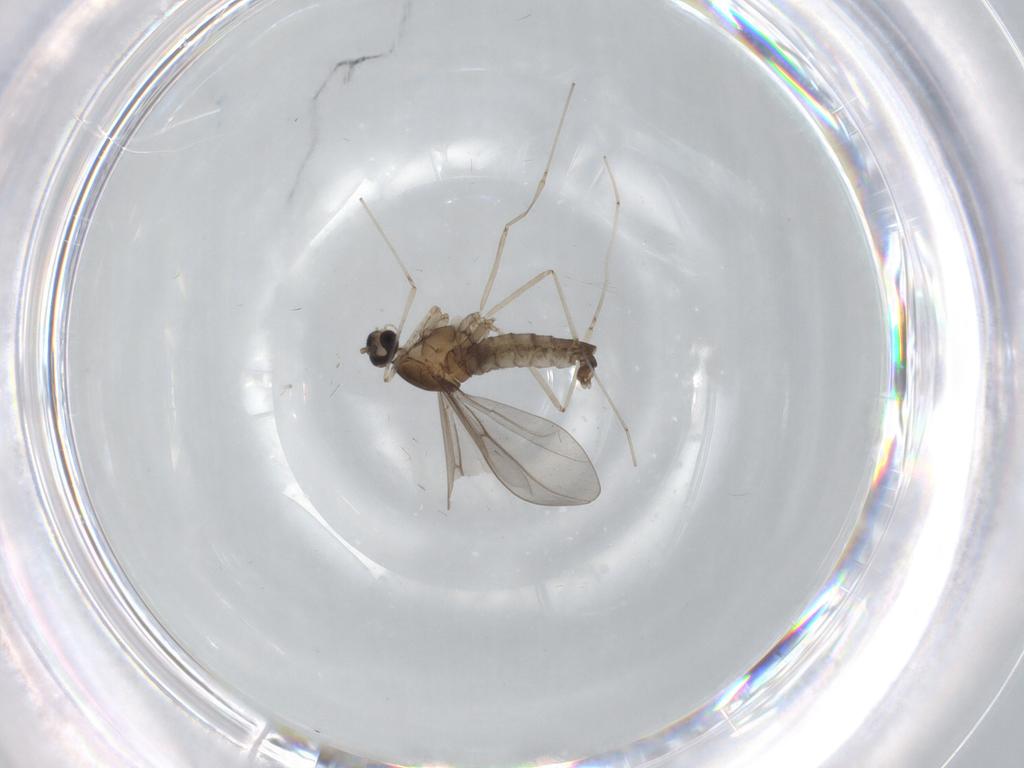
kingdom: Animalia
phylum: Arthropoda
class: Insecta
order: Diptera
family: Cecidomyiidae
